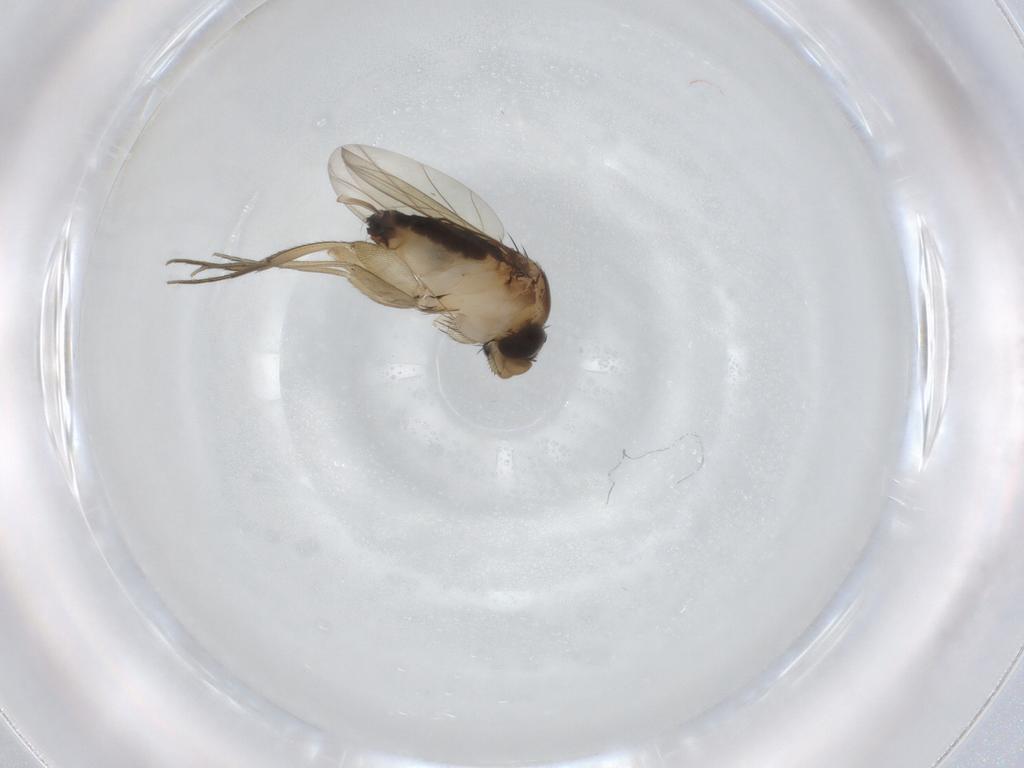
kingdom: Animalia
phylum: Arthropoda
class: Insecta
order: Diptera
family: Phoridae
